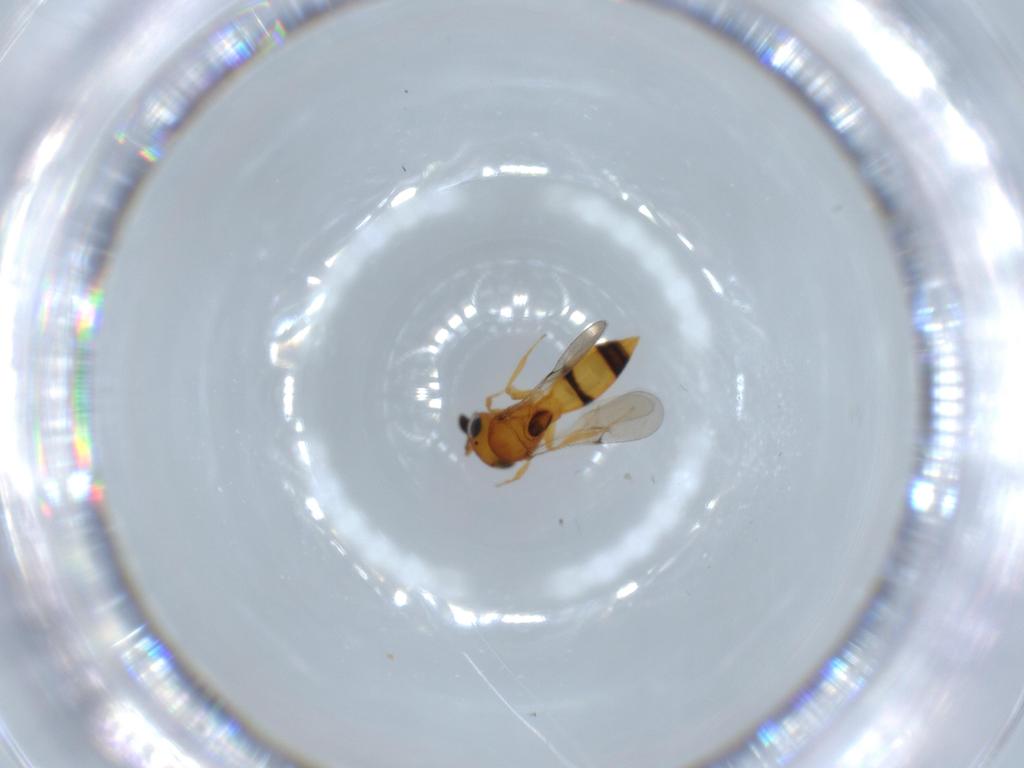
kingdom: Animalia
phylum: Arthropoda
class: Insecta
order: Hymenoptera
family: Scelionidae
